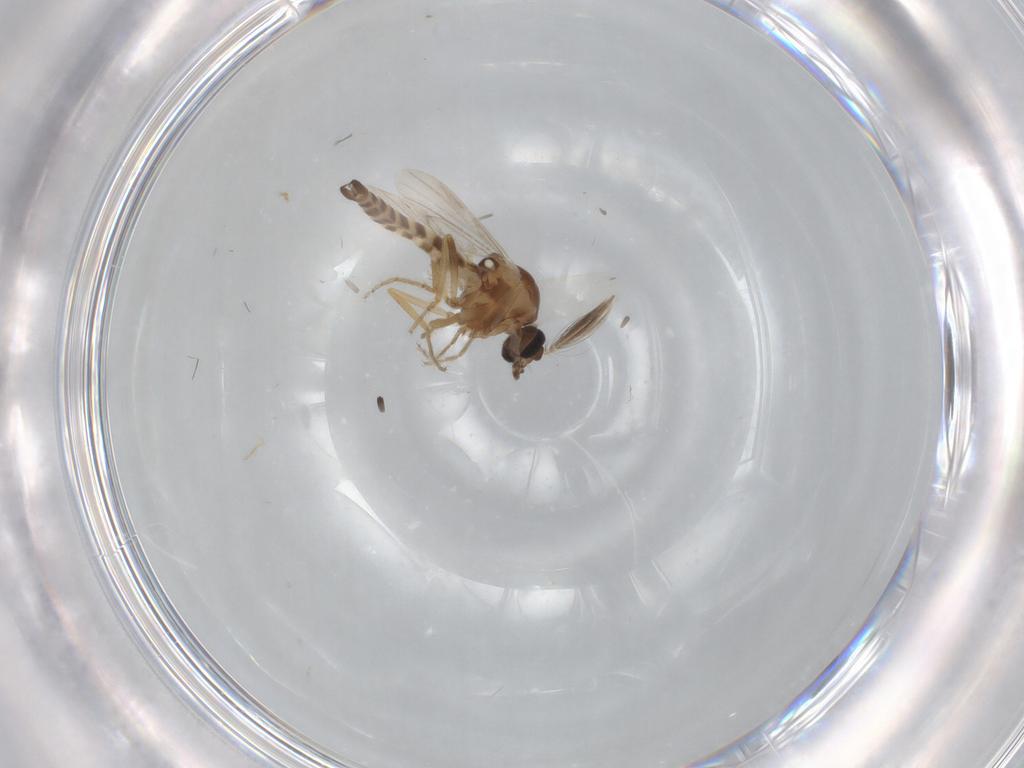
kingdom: Animalia
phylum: Arthropoda
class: Insecta
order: Diptera
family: Ceratopogonidae
